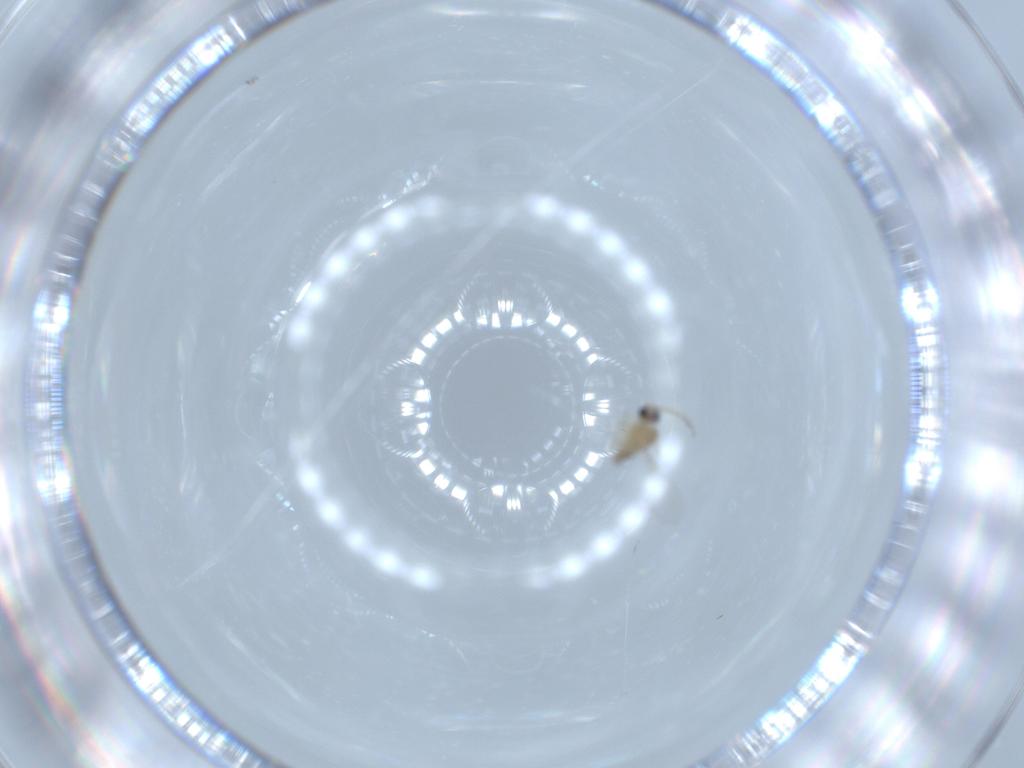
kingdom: Animalia
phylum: Arthropoda
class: Insecta
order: Diptera
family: Cecidomyiidae
